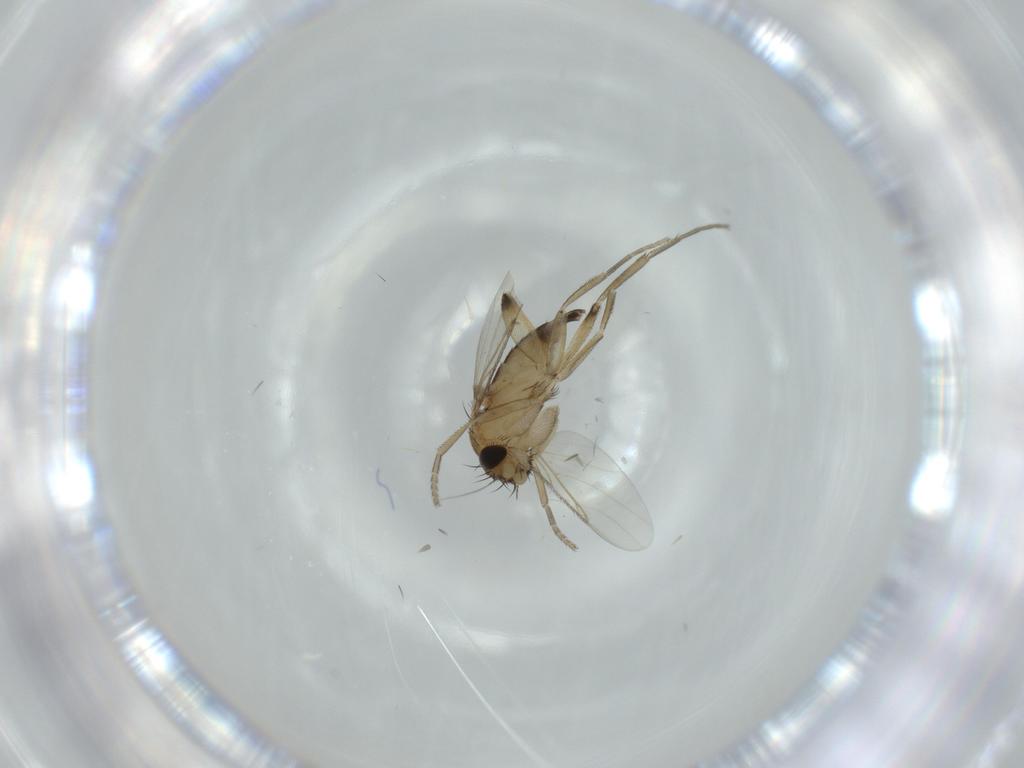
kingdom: Animalia
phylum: Arthropoda
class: Insecta
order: Diptera
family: Phoridae
